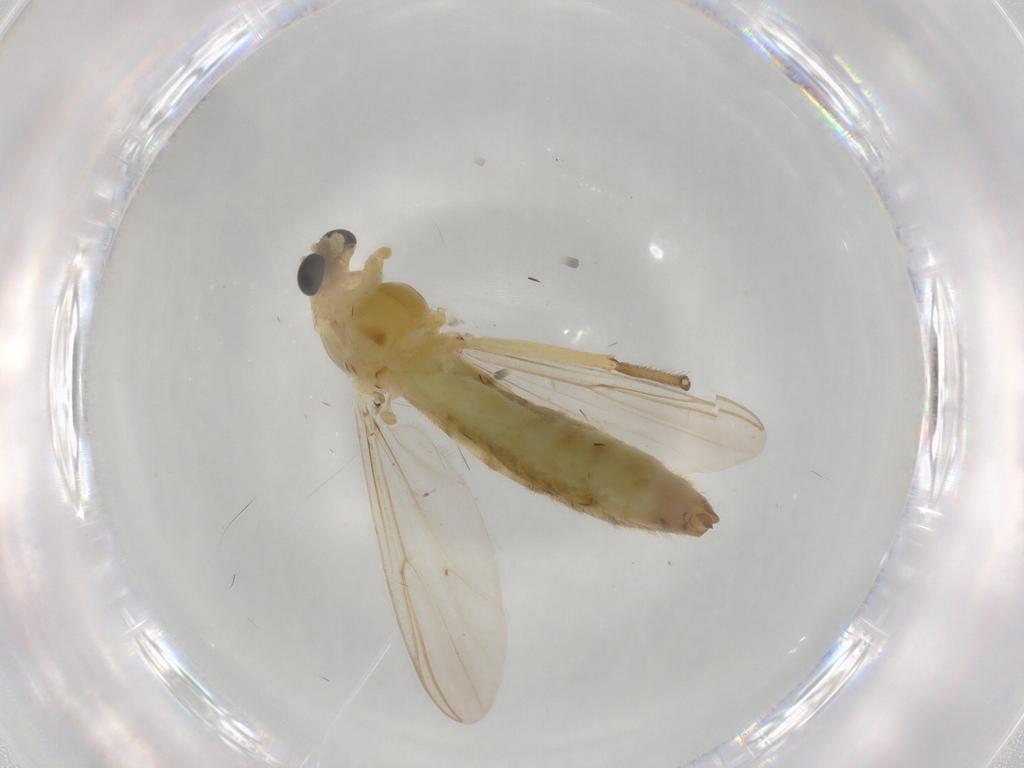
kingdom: Animalia
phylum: Arthropoda
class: Insecta
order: Diptera
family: Chironomidae
